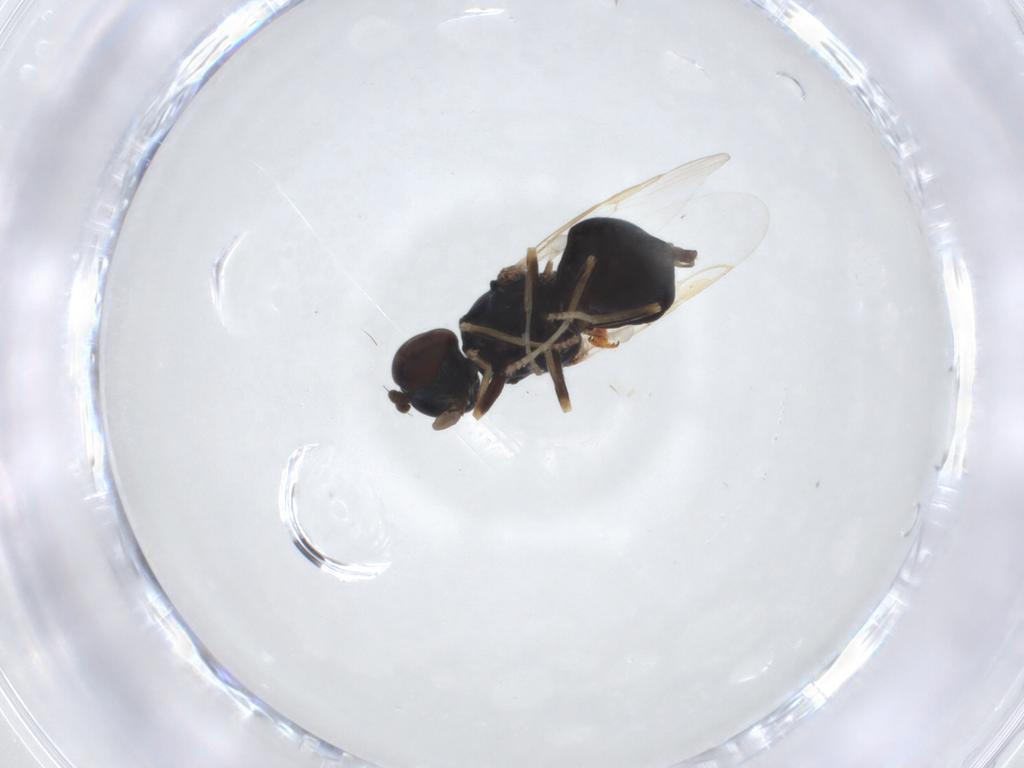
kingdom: Animalia
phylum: Arthropoda
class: Insecta
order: Diptera
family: Stratiomyidae
